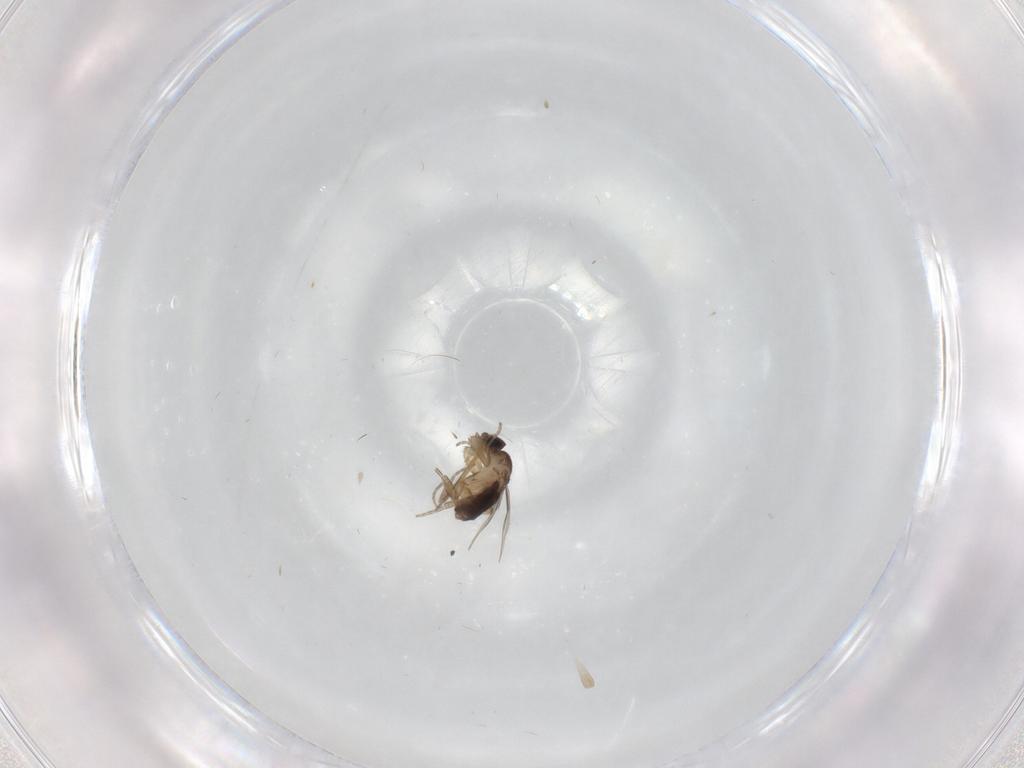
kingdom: Animalia
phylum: Arthropoda
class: Insecta
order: Diptera
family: Ceratopogonidae
